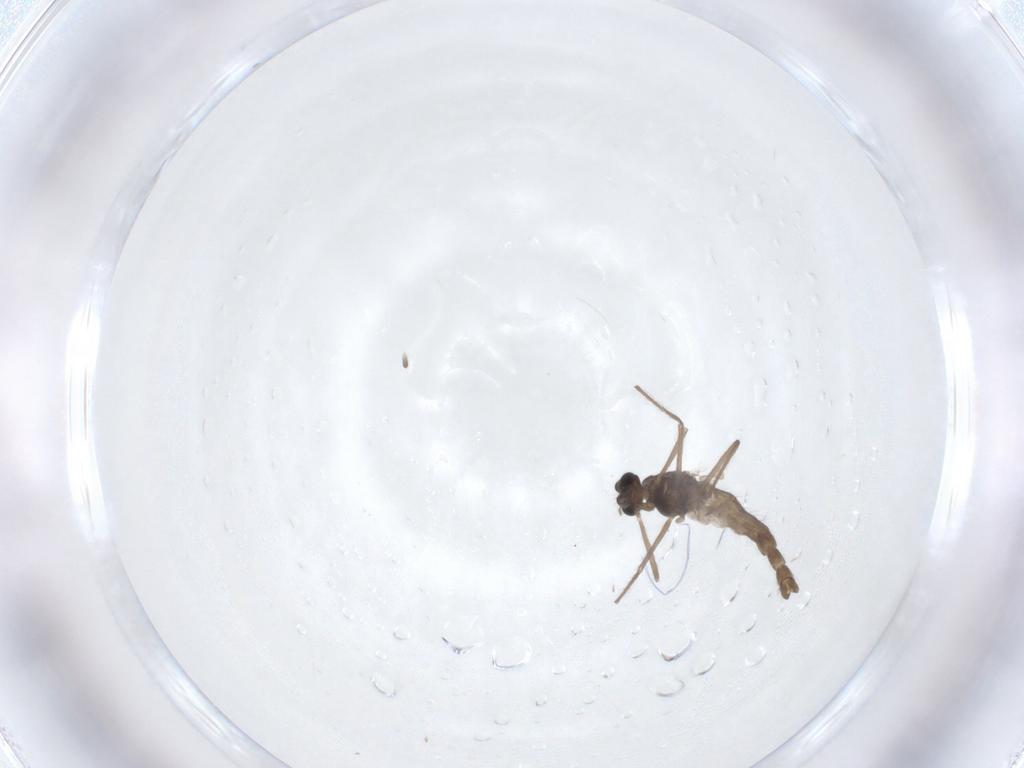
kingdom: Animalia
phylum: Arthropoda
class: Insecta
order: Diptera
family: Chironomidae
